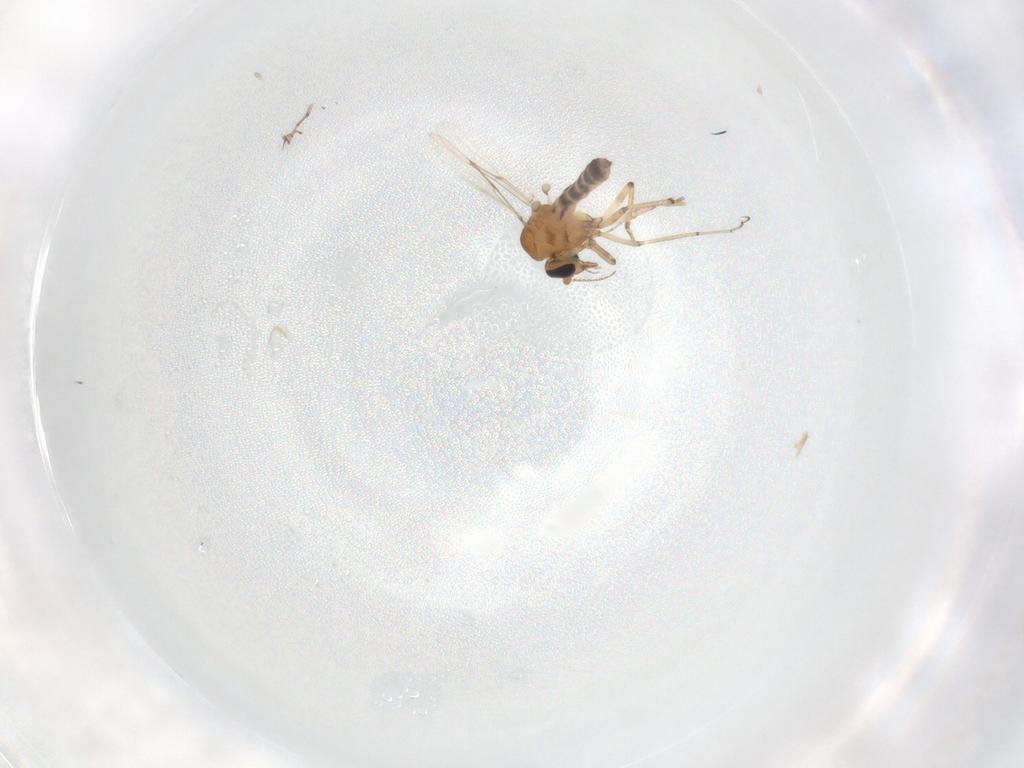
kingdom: Animalia
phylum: Arthropoda
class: Insecta
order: Diptera
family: Ceratopogonidae
